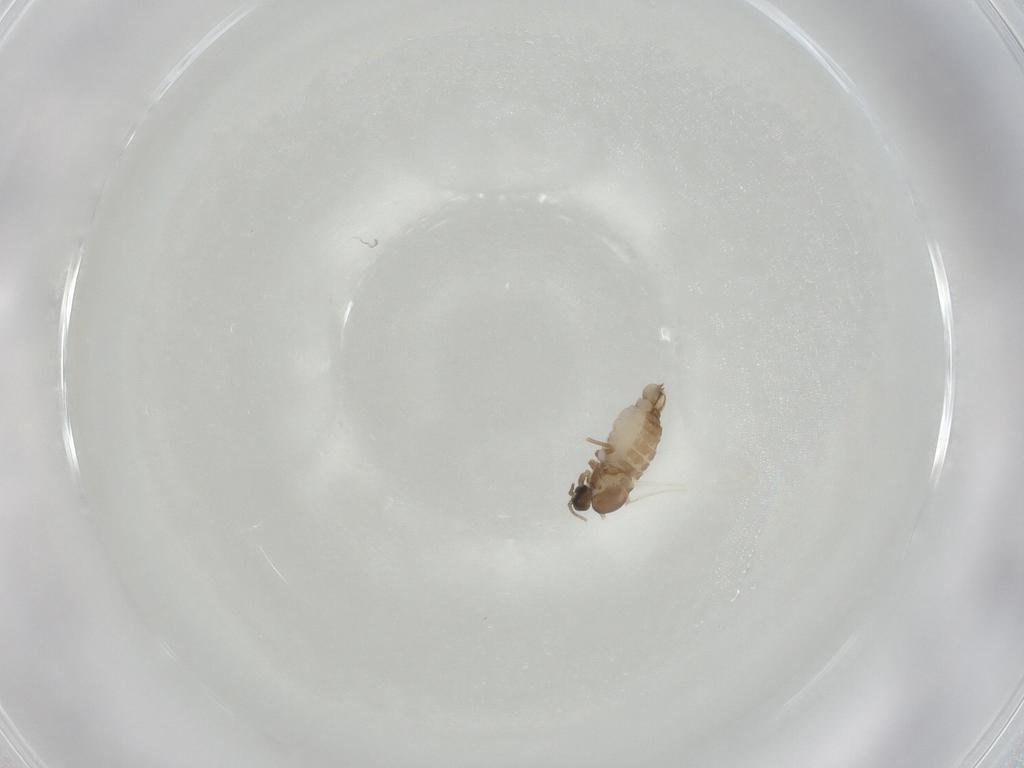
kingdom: Animalia
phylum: Arthropoda
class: Insecta
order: Diptera
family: Cecidomyiidae
